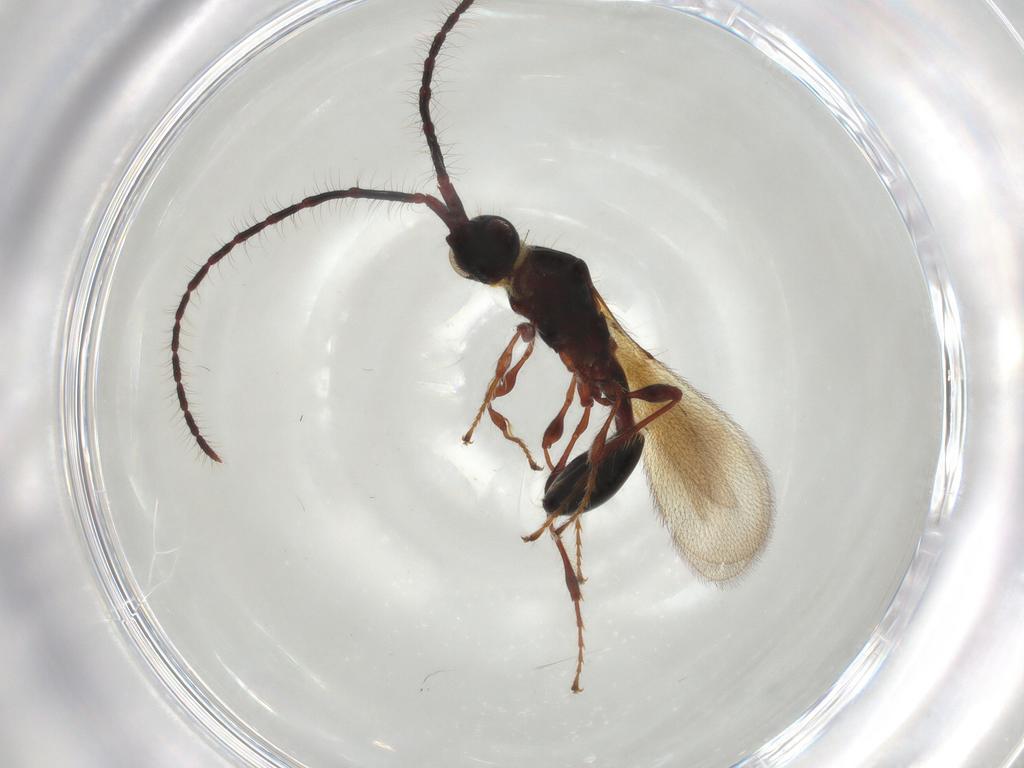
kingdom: Animalia
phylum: Arthropoda
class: Insecta
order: Hymenoptera
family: Diapriidae
